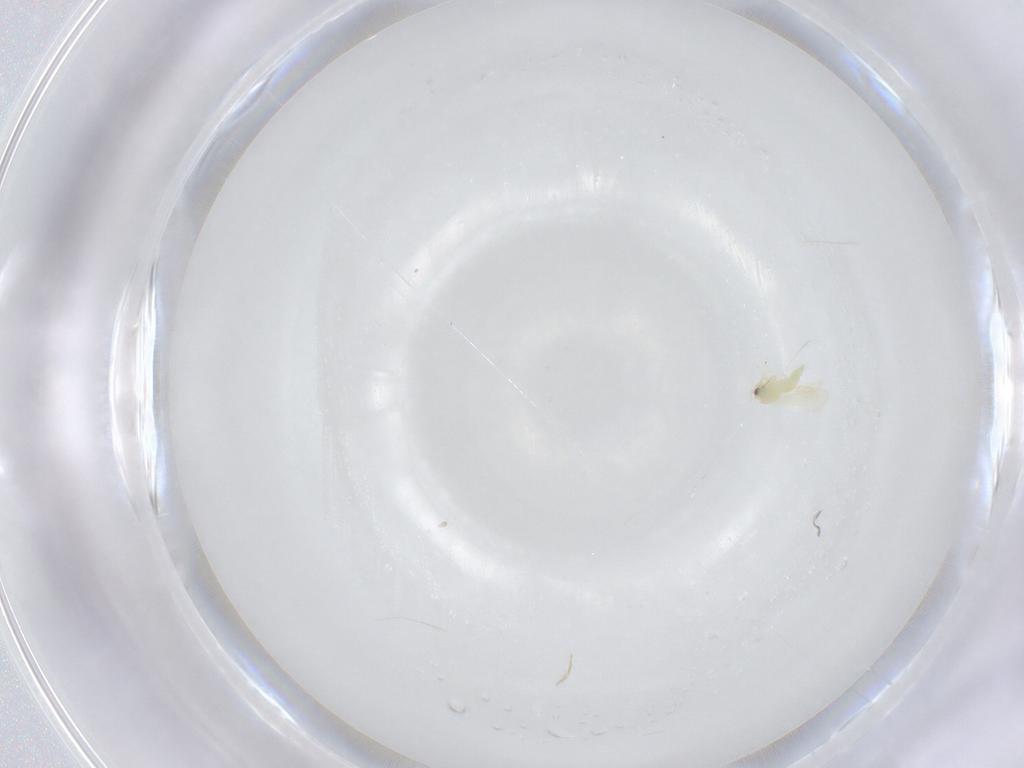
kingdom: Animalia
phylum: Arthropoda
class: Insecta
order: Hemiptera
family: Aleyrodidae
